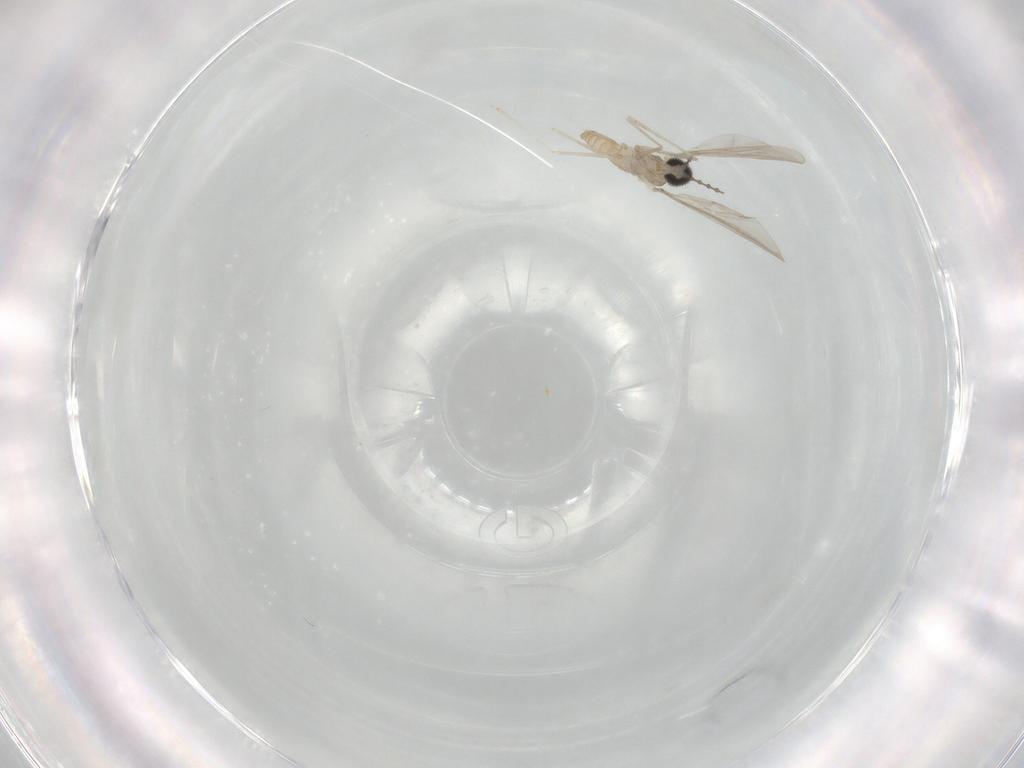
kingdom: Animalia
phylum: Arthropoda
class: Insecta
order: Diptera
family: Cecidomyiidae
